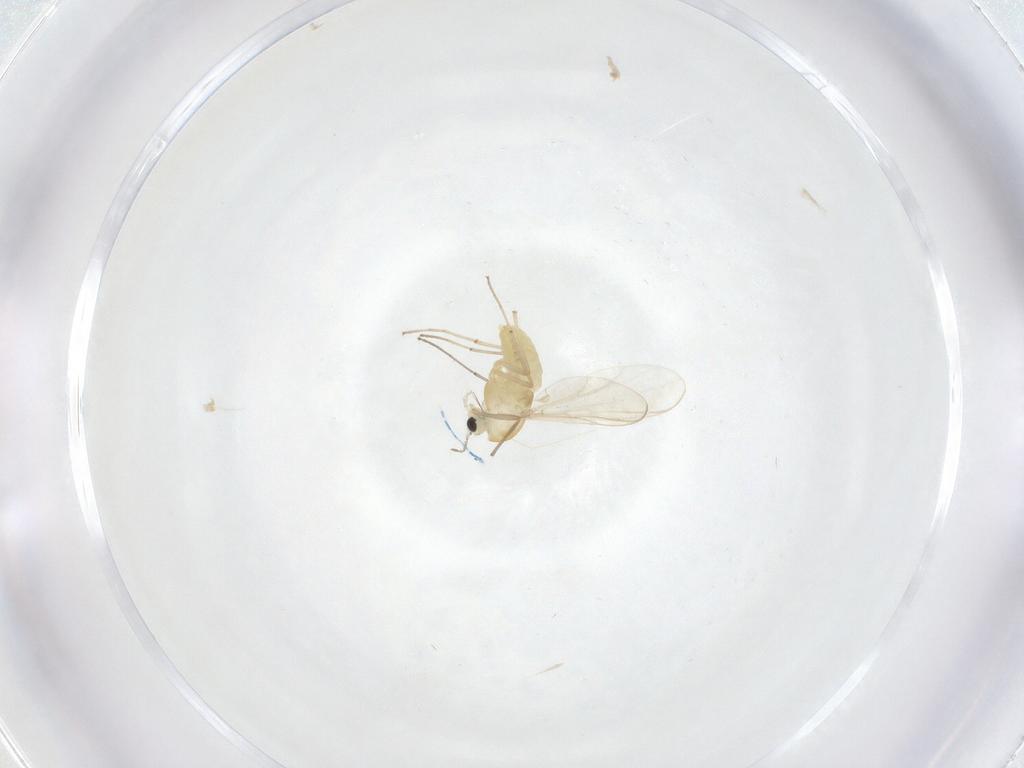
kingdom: Animalia
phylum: Arthropoda
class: Insecta
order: Diptera
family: Chironomidae
